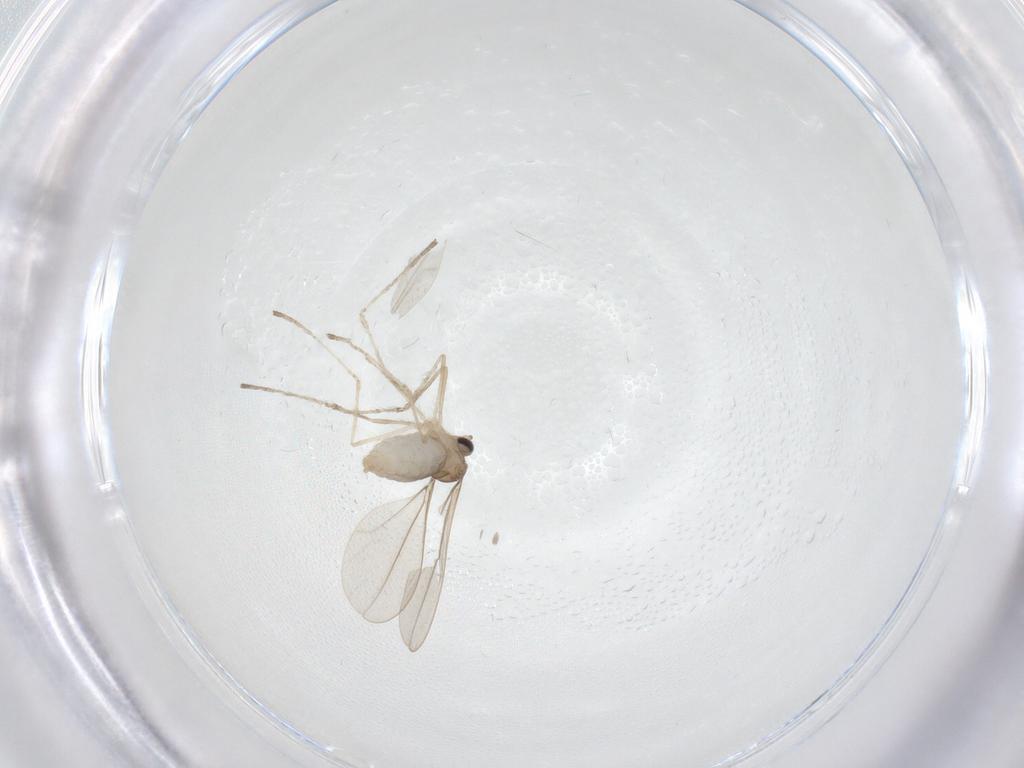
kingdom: Animalia
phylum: Arthropoda
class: Insecta
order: Diptera
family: Cecidomyiidae
